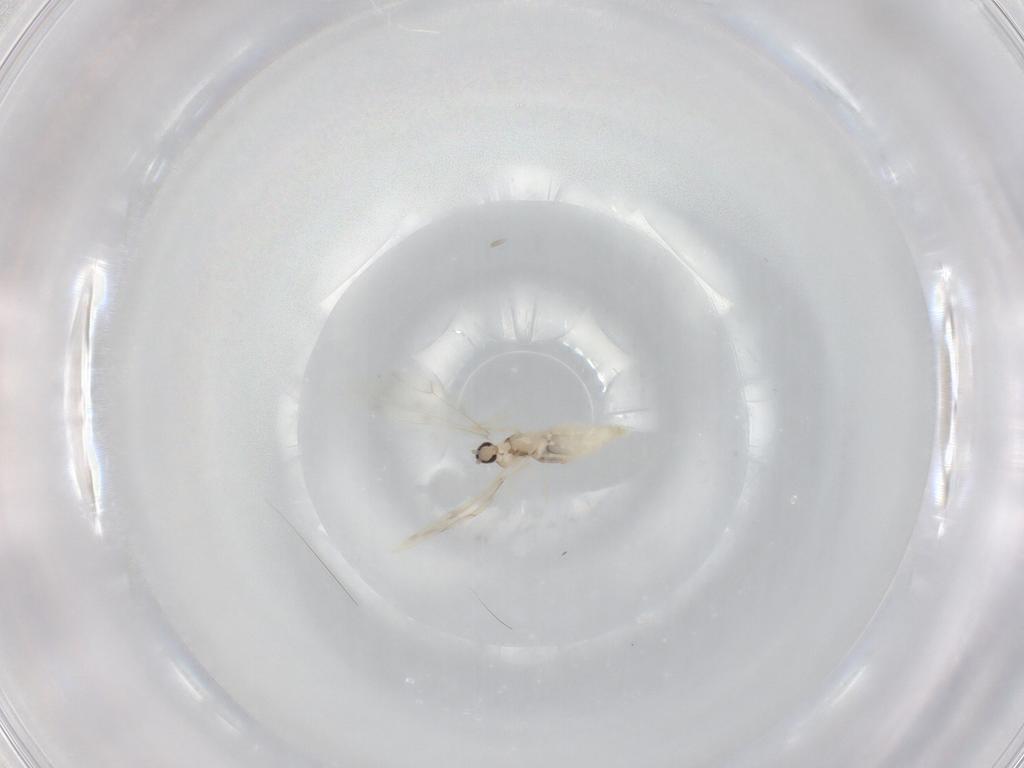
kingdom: Animalia
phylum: Arthropoda
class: Insecta
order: Diptera
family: Cecidomyiidae
